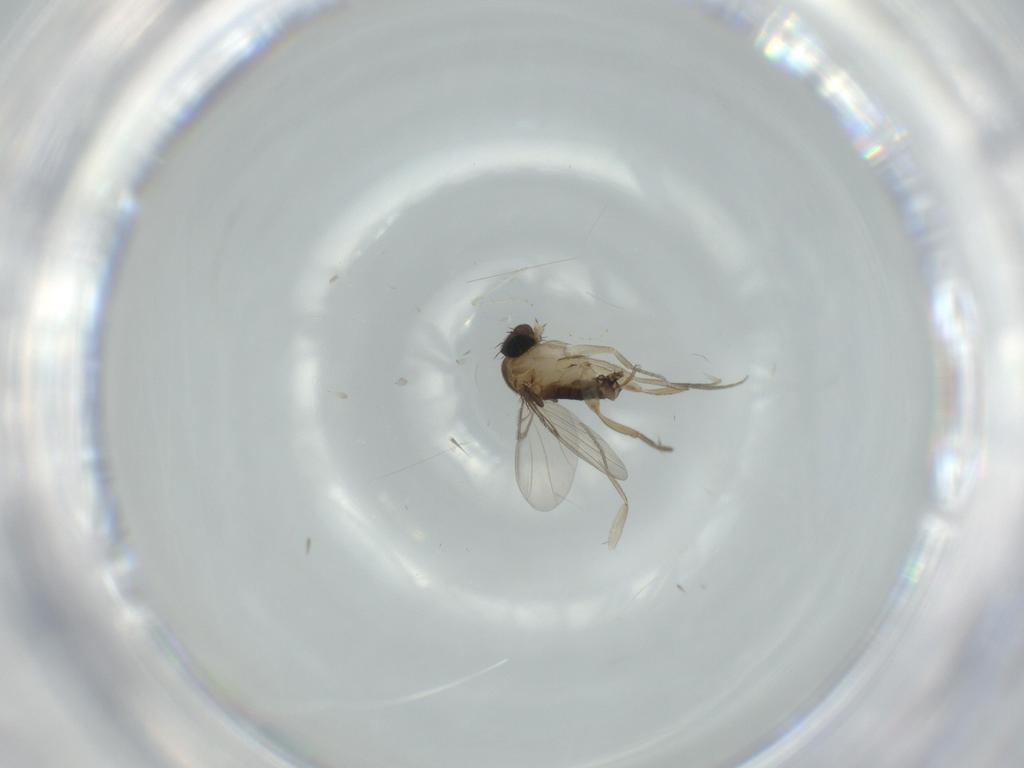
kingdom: Animalia
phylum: Arthropoda
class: Insecta
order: Diptera
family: Phoridae
